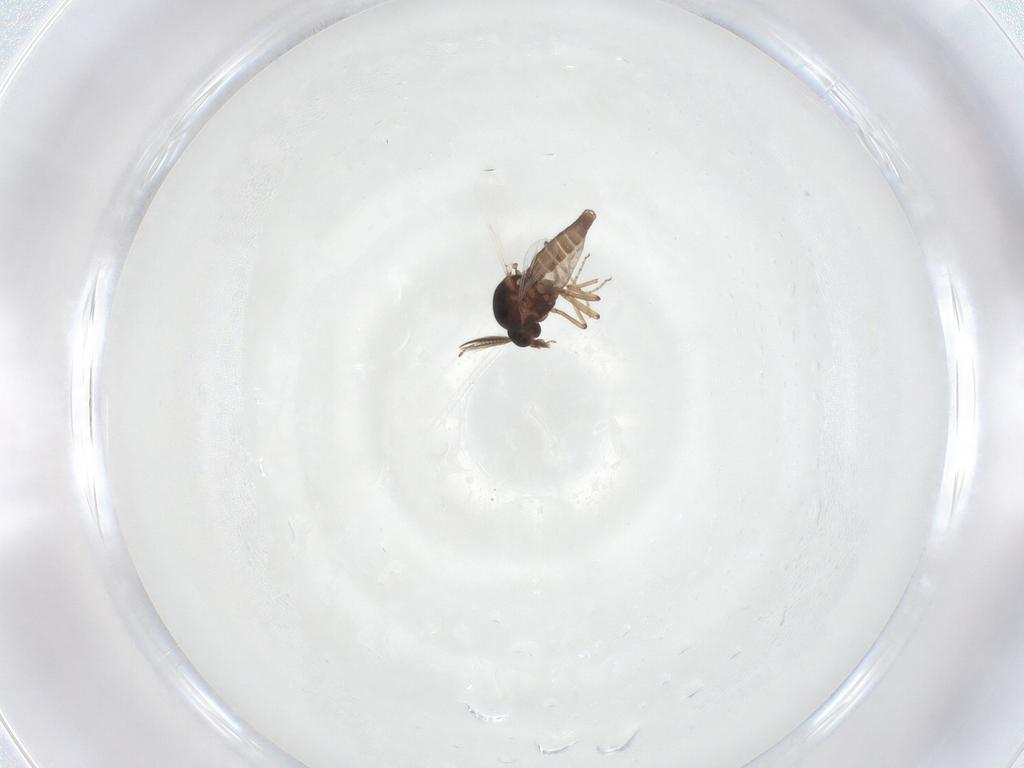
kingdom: Animalia
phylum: Arthropoda
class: Insecta
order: Diptera
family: Ceratopogonidae
